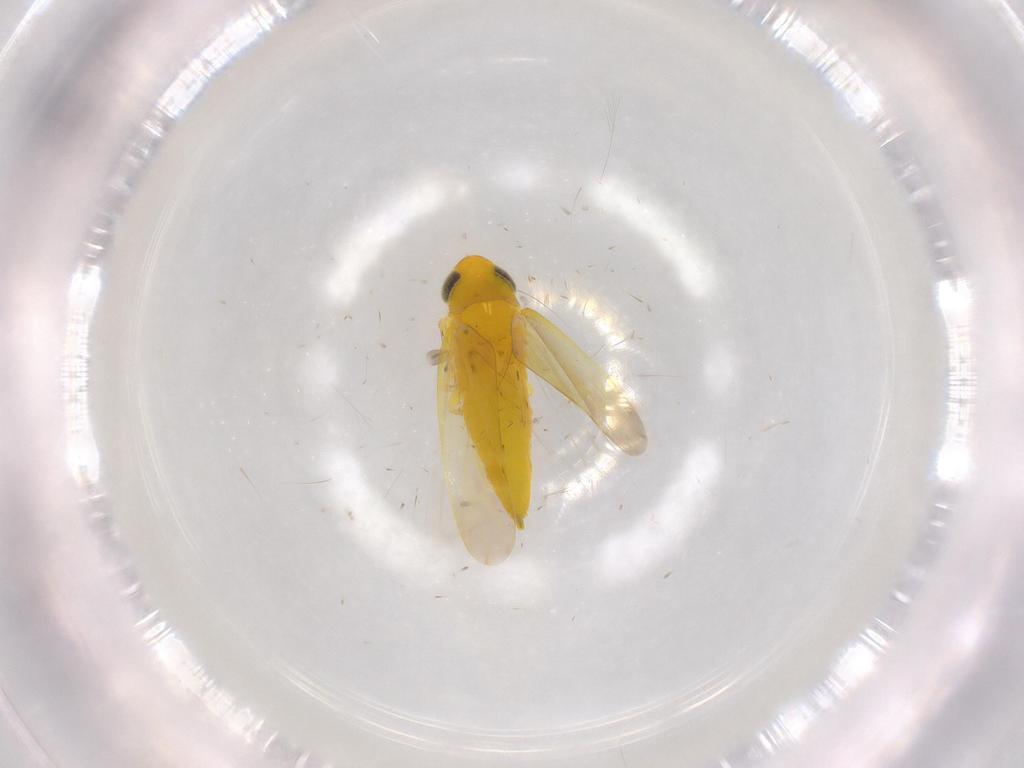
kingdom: Animalia
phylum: Arthropoda
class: Insecta
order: Hemiptera
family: Cicadellidae
